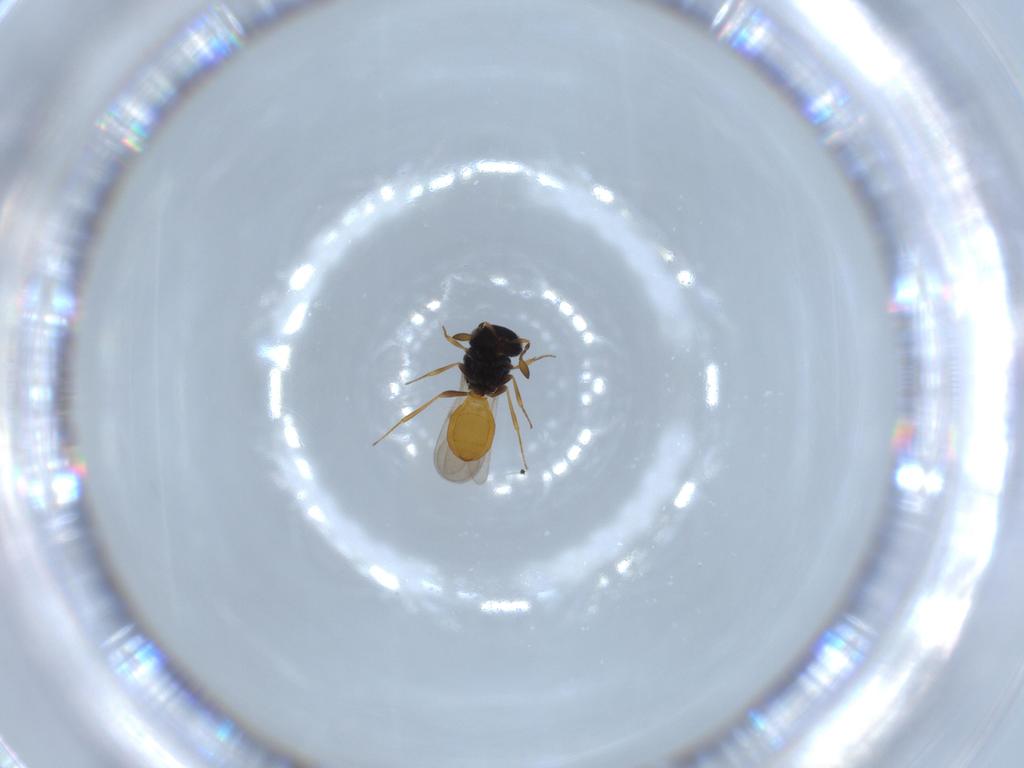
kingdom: Animalia
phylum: Arthropoda
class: Insecta
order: Hymenoptera
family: Scelionidae
